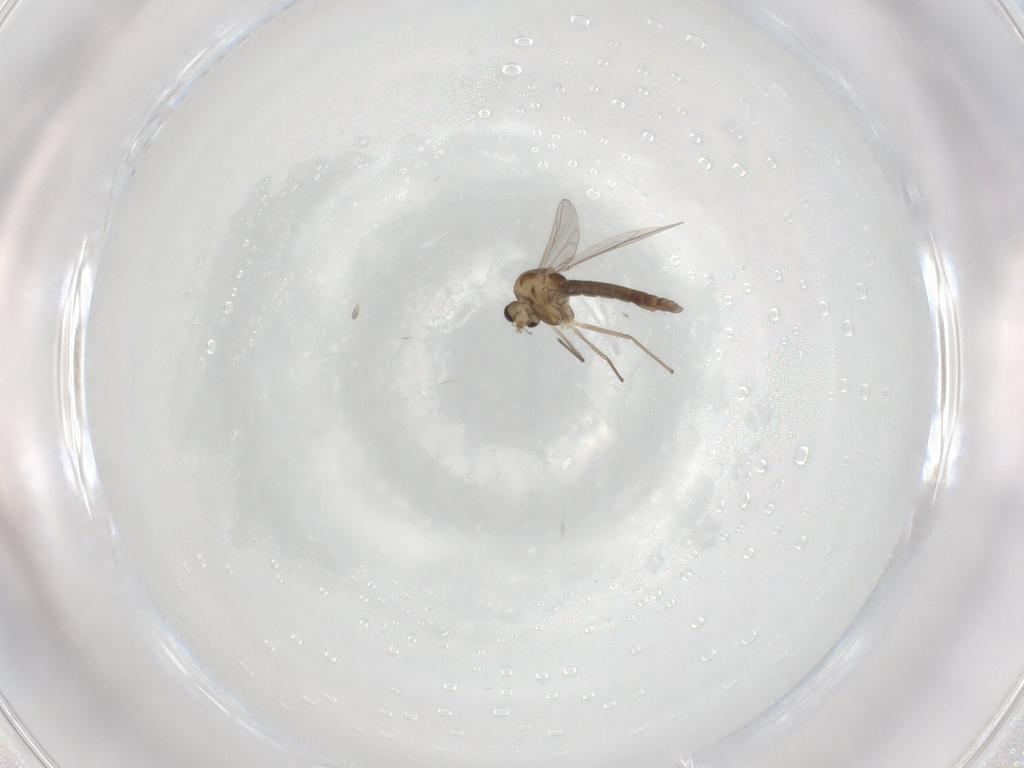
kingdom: Animalia
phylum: Arthropoda
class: Insecta
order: Diptera
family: Chironomidae
